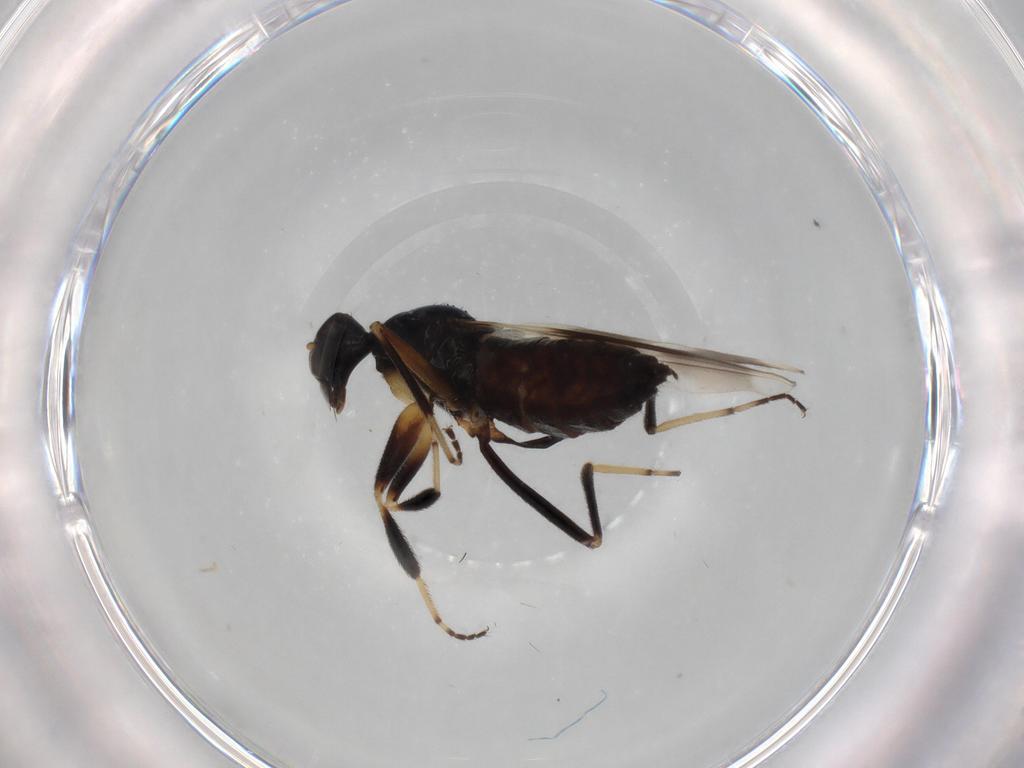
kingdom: Animalia
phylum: Arthropoda
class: Insecta
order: Diptera
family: Hybotidae
